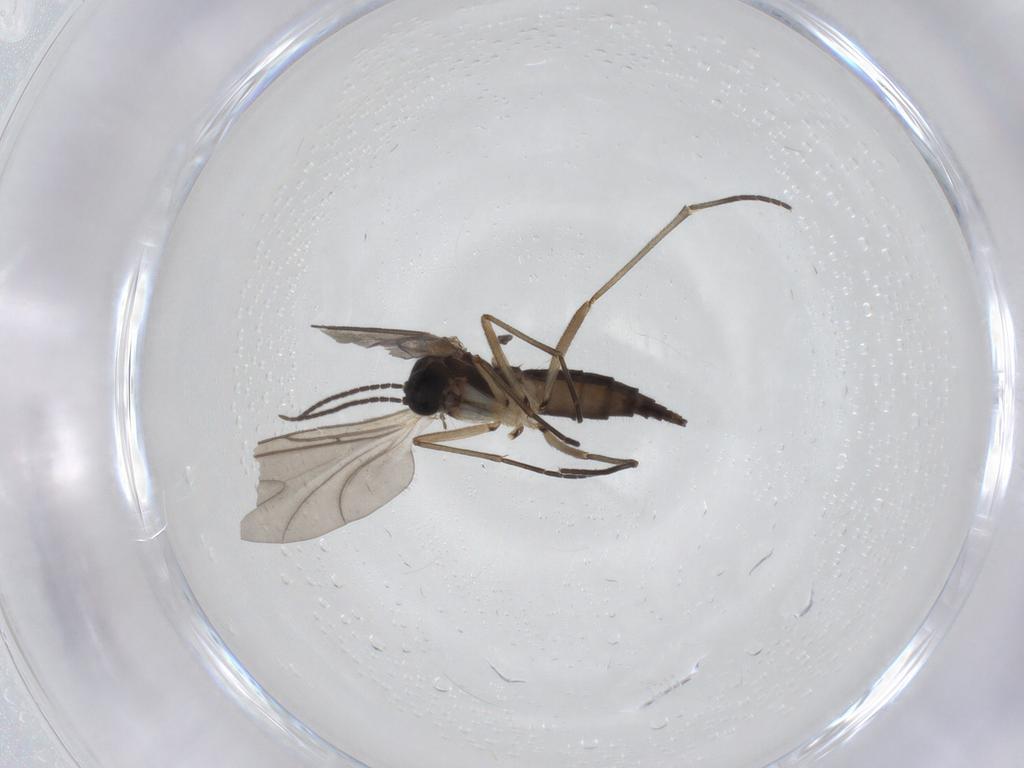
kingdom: Animalia
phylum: Arthropoda
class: Insecta
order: Diptera
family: Sciaridae
